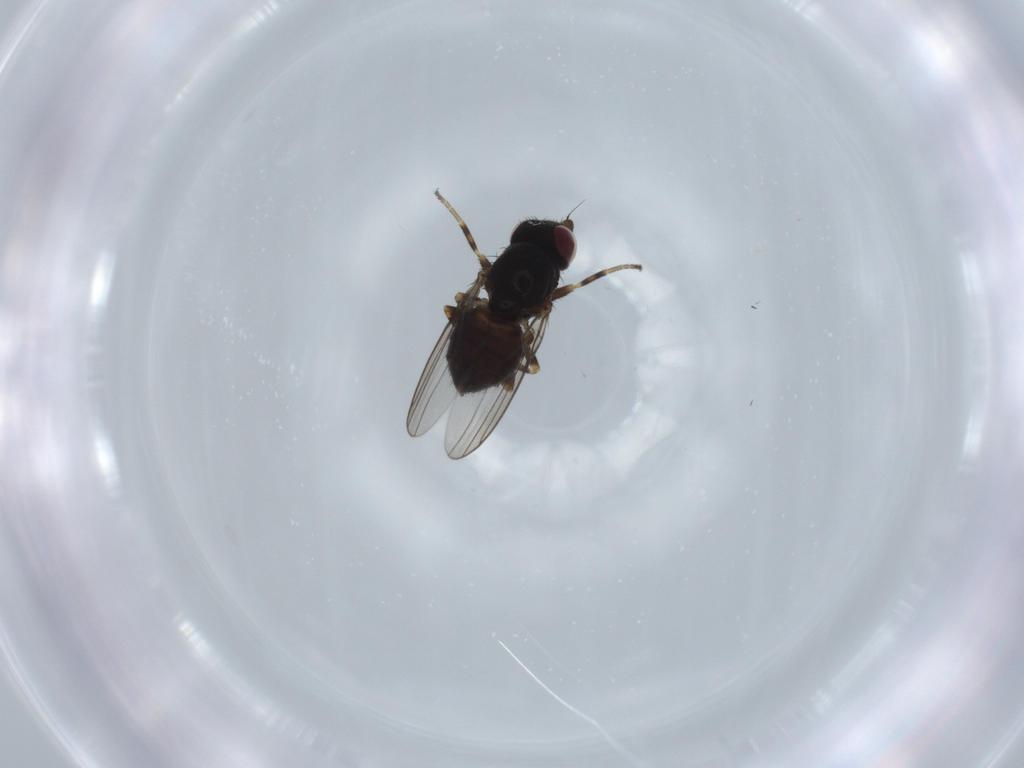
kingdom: Animalia
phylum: Arthropoda
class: Insecta
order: Diptera
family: Chloropidae
